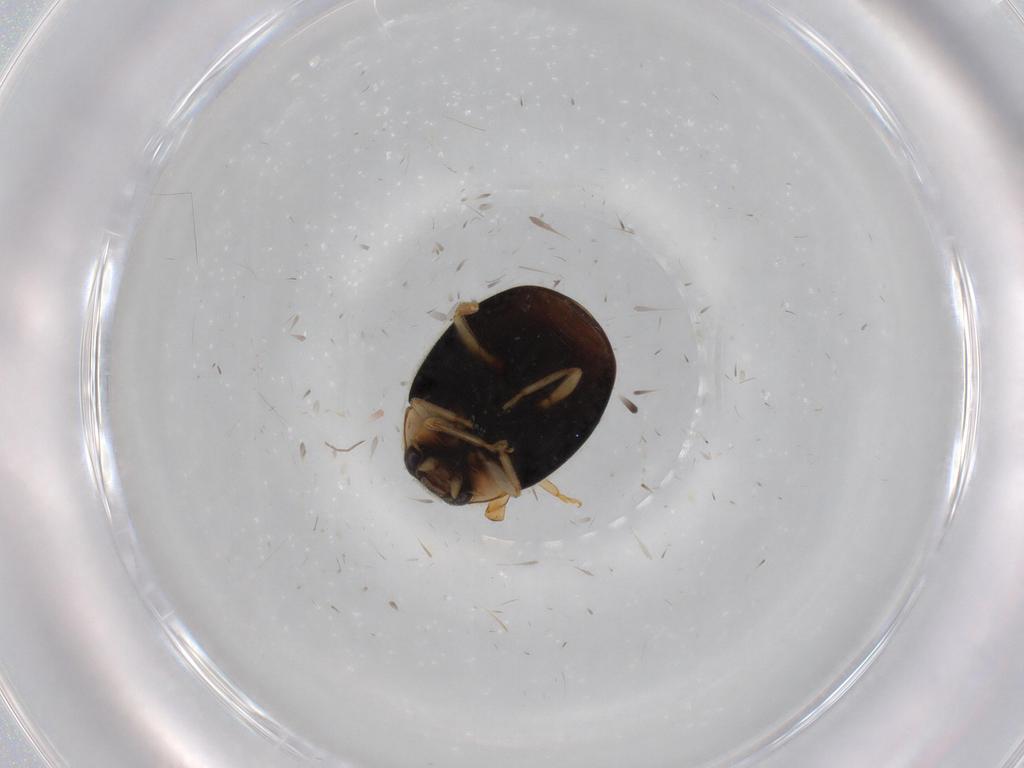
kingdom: Animalia
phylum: Arthropoda
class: Insecta
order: Coleoptera
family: Coccinellidae
